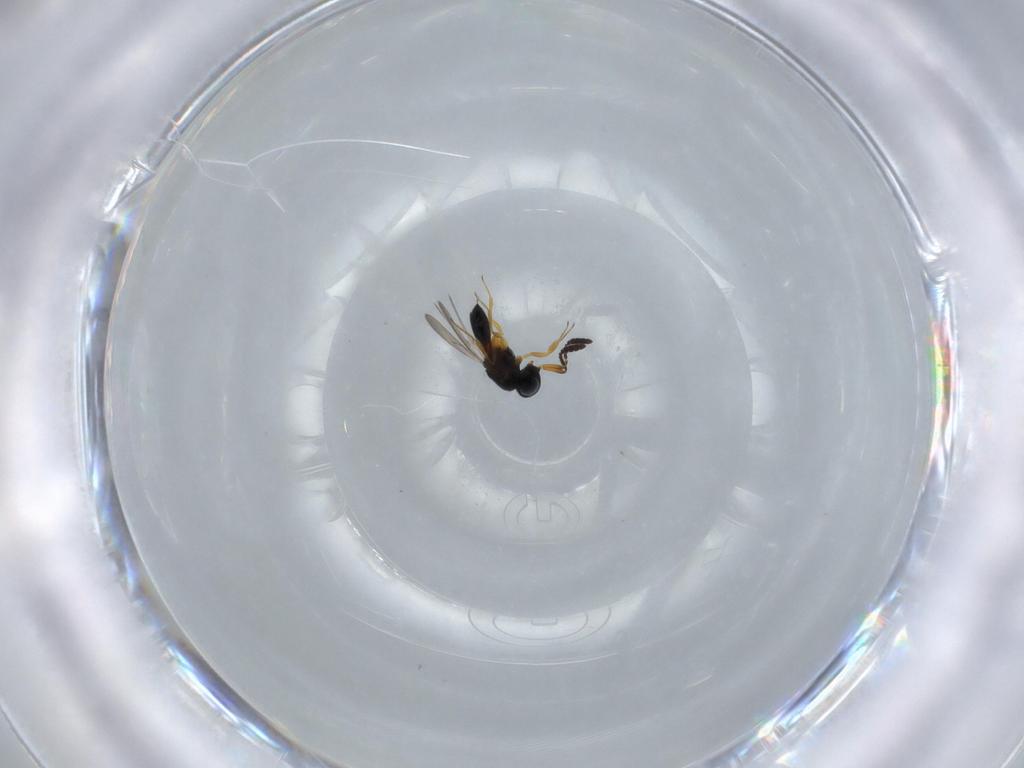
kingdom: Animalia
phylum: Arthropoda
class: Insecta
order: Hymenoptera
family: Scelionidae
